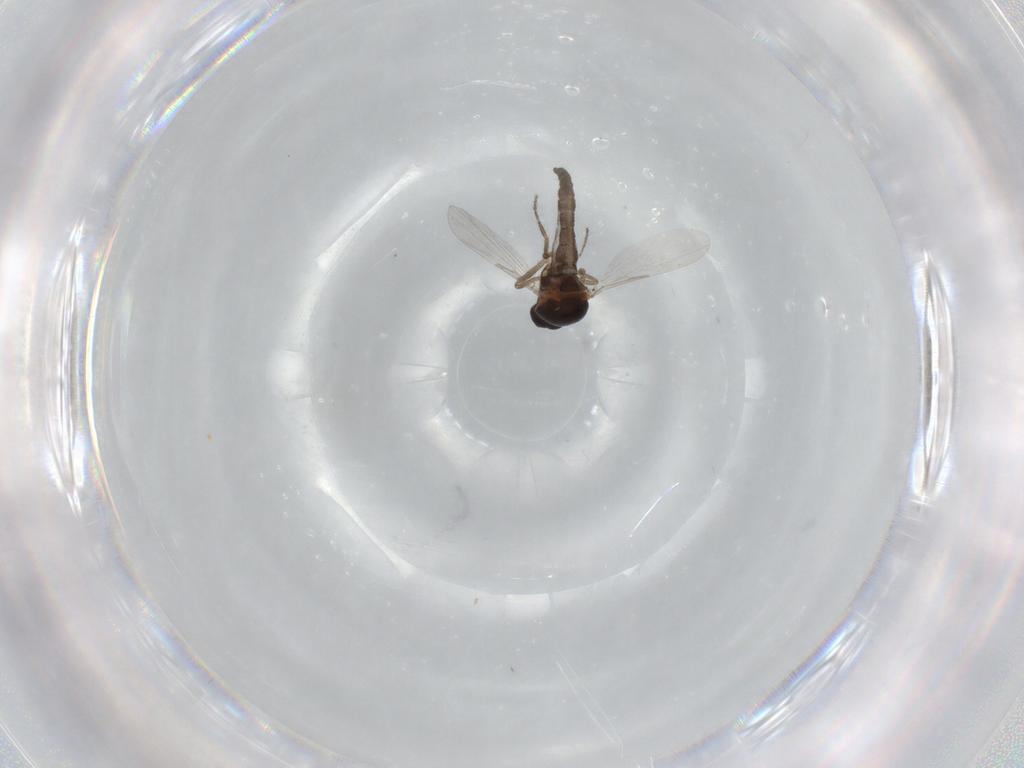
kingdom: Animalia
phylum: Arthropoda
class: Insecta
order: Diptera
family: Ceratopogonidae
